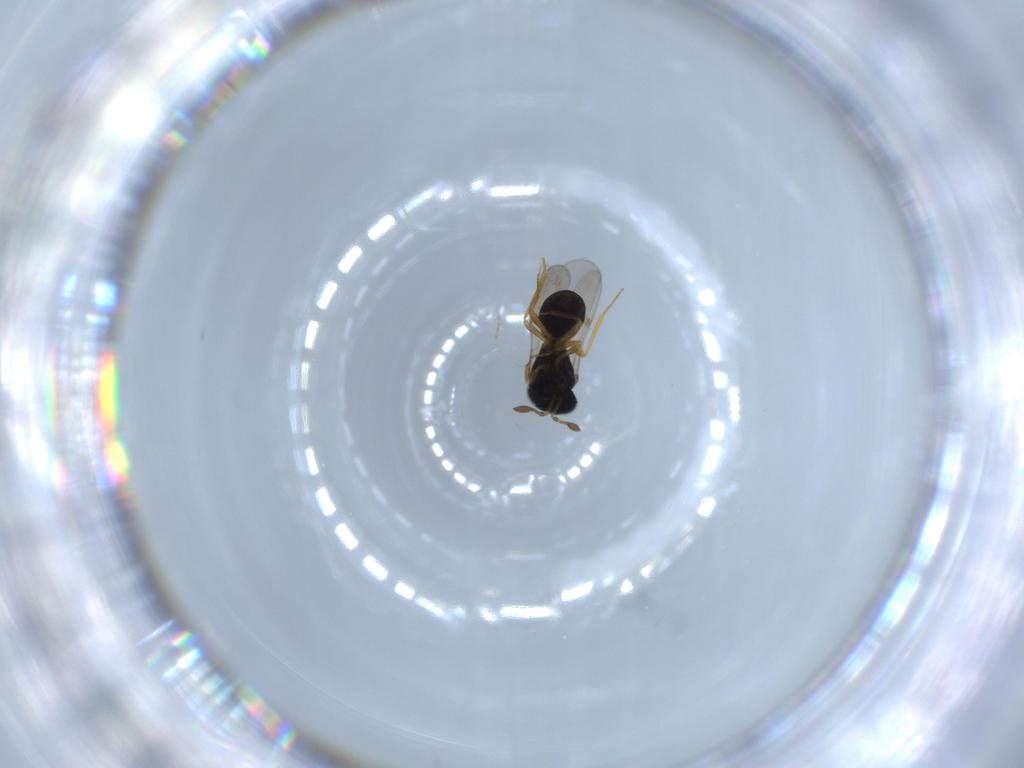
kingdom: Animalia
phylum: Arthropoda
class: Insecta
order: Hymenoptera
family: Scelionidae
